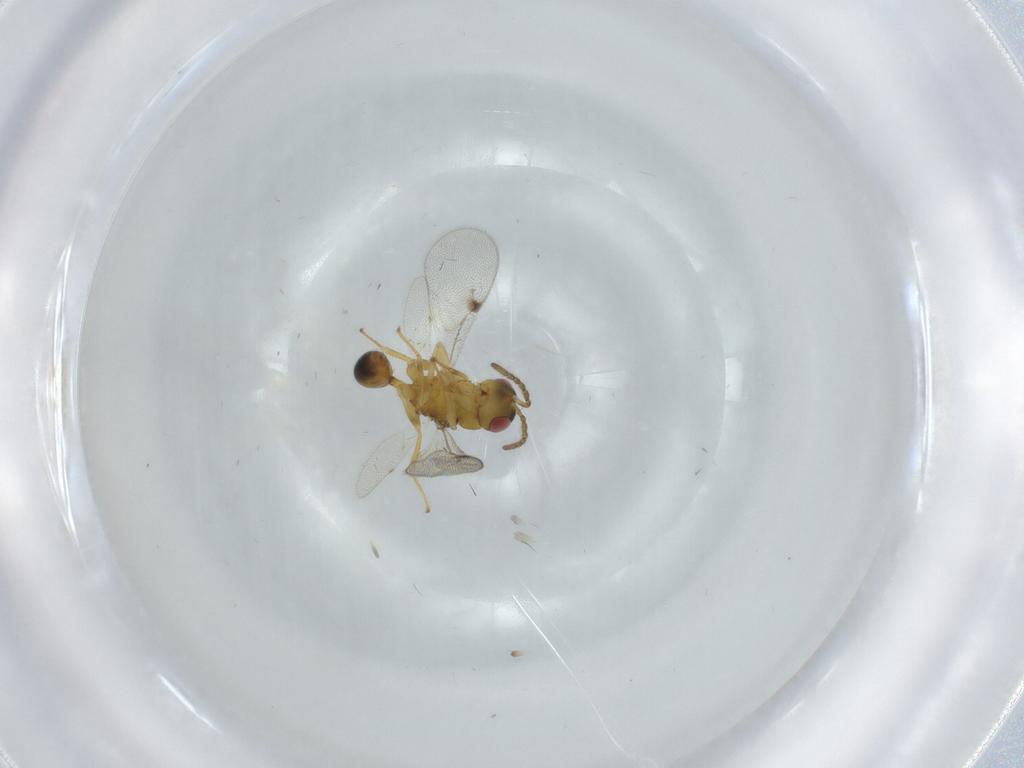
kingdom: Animalia
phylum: Arthropoda
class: Insecta
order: Hymenoptera
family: Eurytomidae
